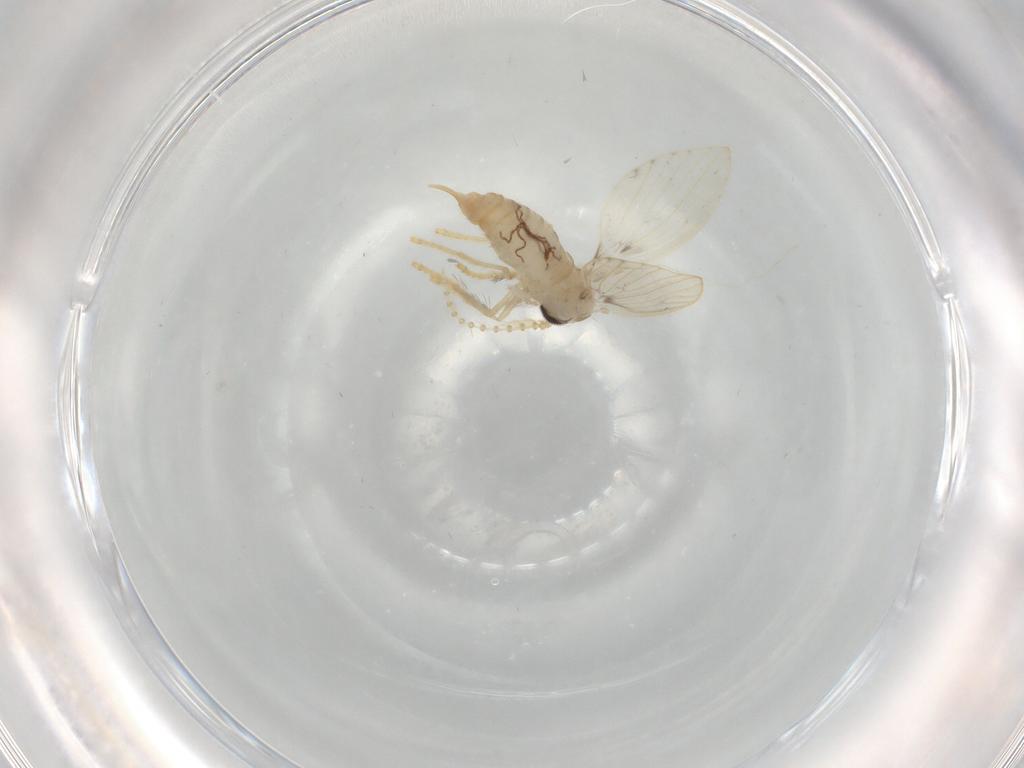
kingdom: Animalia
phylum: Arthropoda
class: Insecta
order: Diptera
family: Psychodidae
